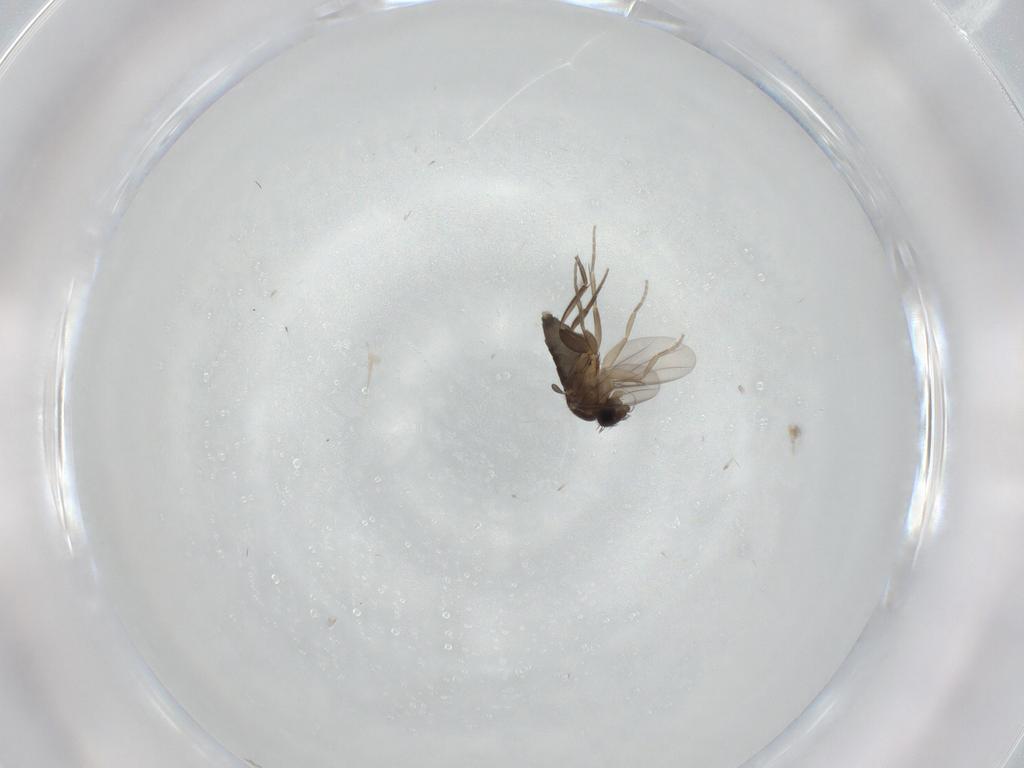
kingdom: Animalia
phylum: Arthropoda
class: Insecta
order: Diptera
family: Phoridae
